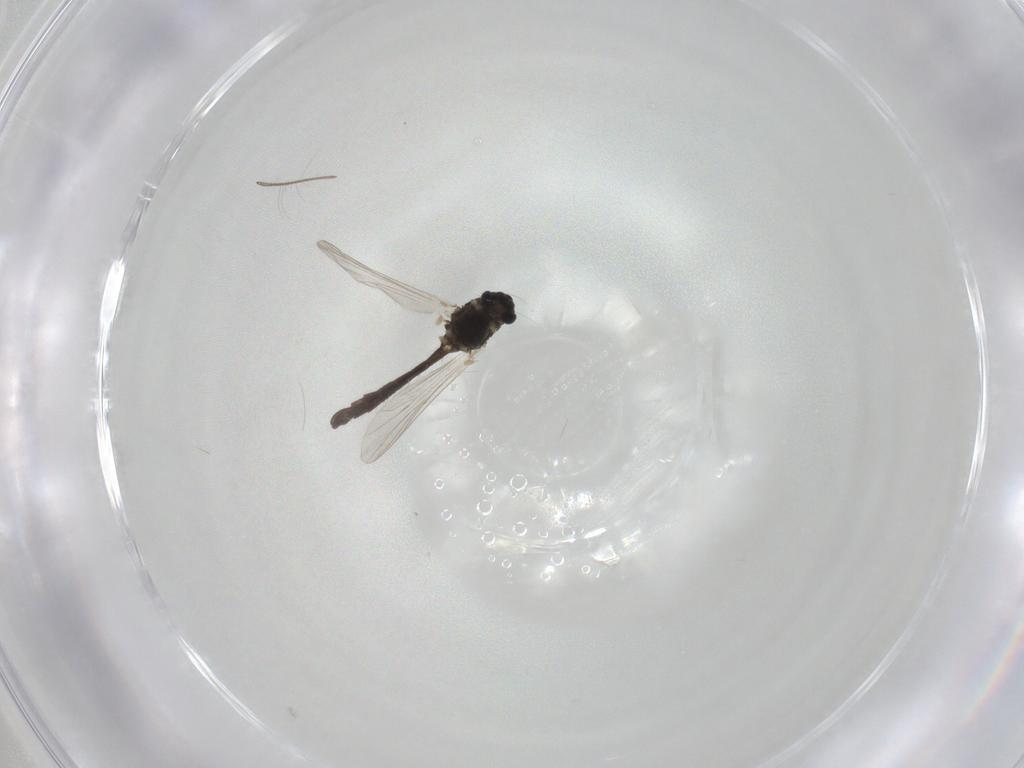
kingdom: Animalia
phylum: Arthropoda
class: Insecta
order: Diptera
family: Chironomidae
